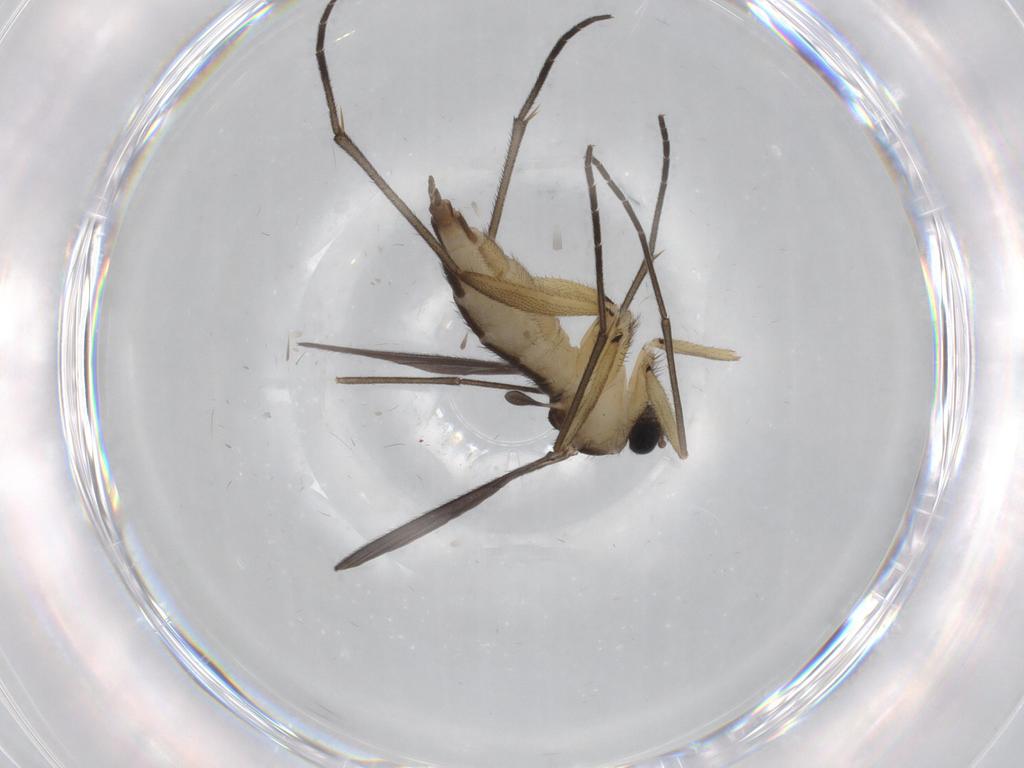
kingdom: Animalia
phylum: Arthropoda
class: Insecta
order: Diptera
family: Sciaridae
